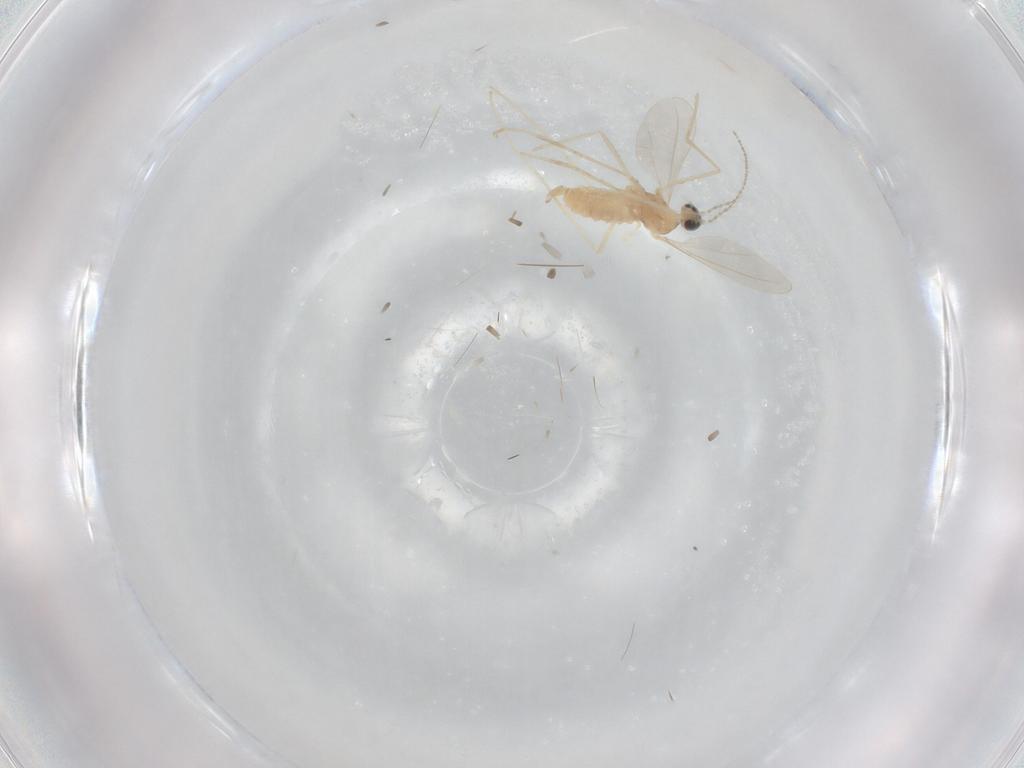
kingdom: Animalia
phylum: Arthropoda
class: Insecta
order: Diptera
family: Cecidomyiidae
